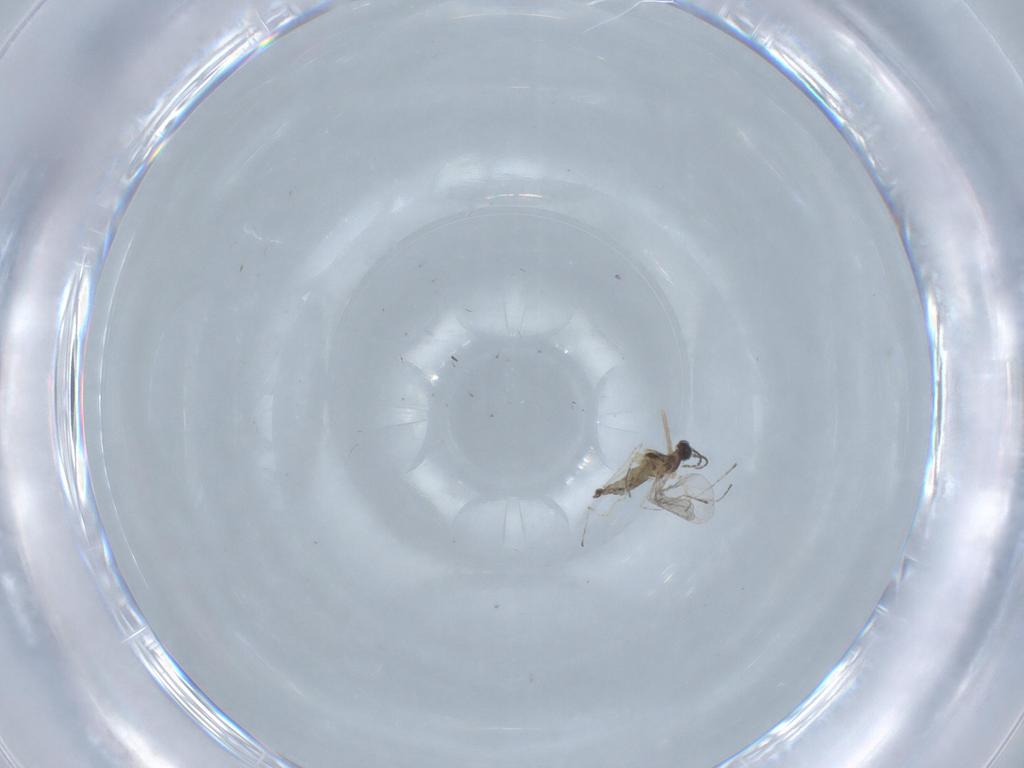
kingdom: Animalia
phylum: Arthropoda
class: Insecta
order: Diptera
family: Cecidomyiidae
